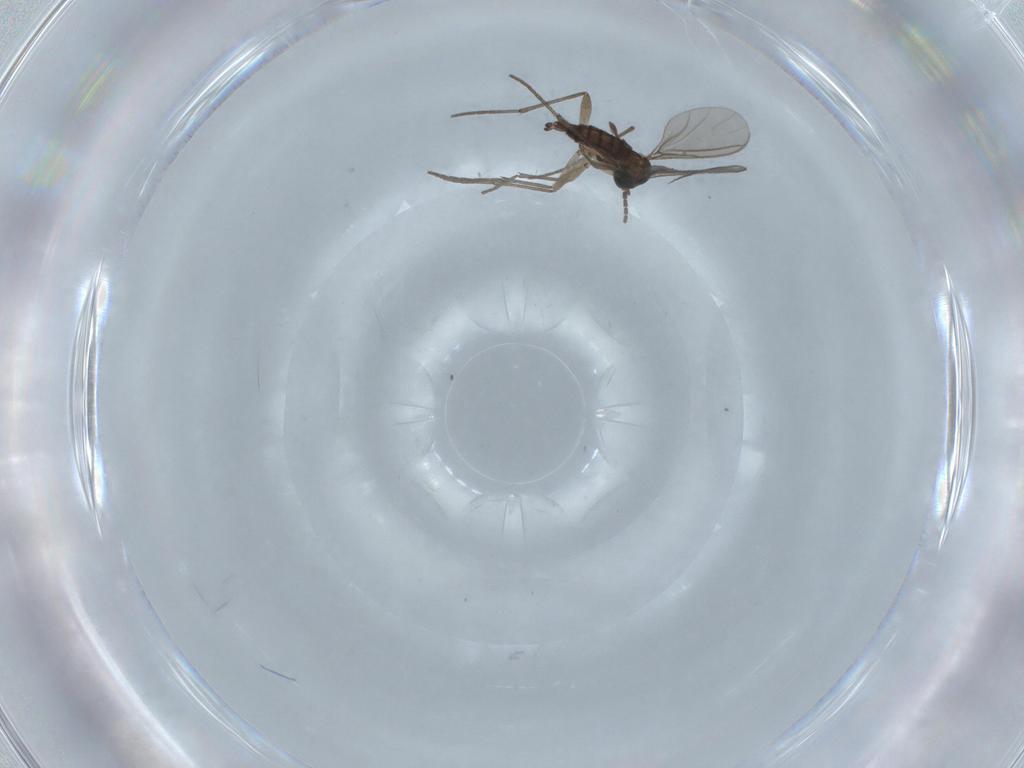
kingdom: Animalia
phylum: Arthropoda
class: Insecta
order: Diptera
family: Sciaridae
